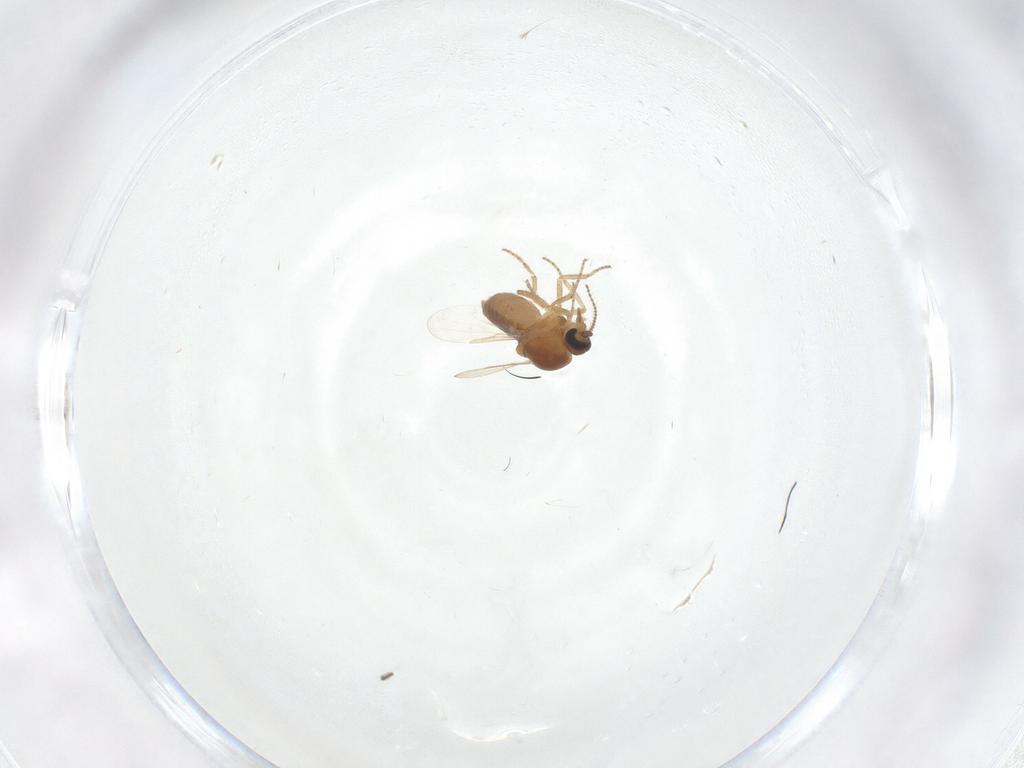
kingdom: Animalia
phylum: Arthropoda
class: Insecta
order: Diptera
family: Ceratopogonidae
